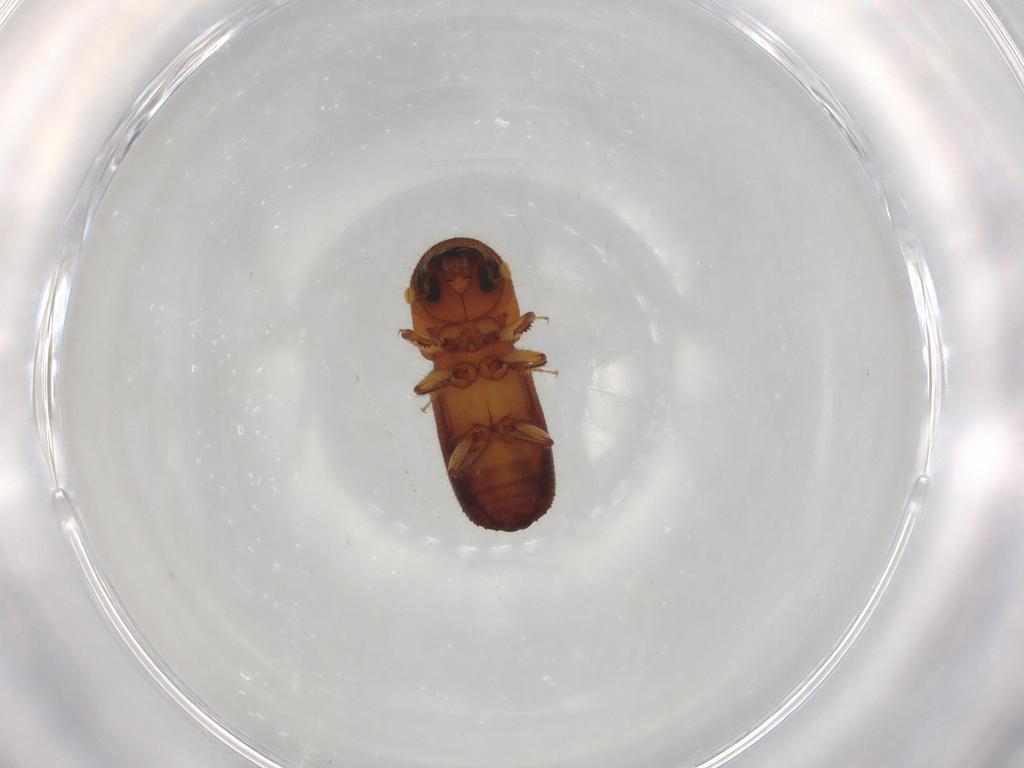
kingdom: Animalia
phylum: Arthropoda
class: Insecta
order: Coleoptera
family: Curculionidae
